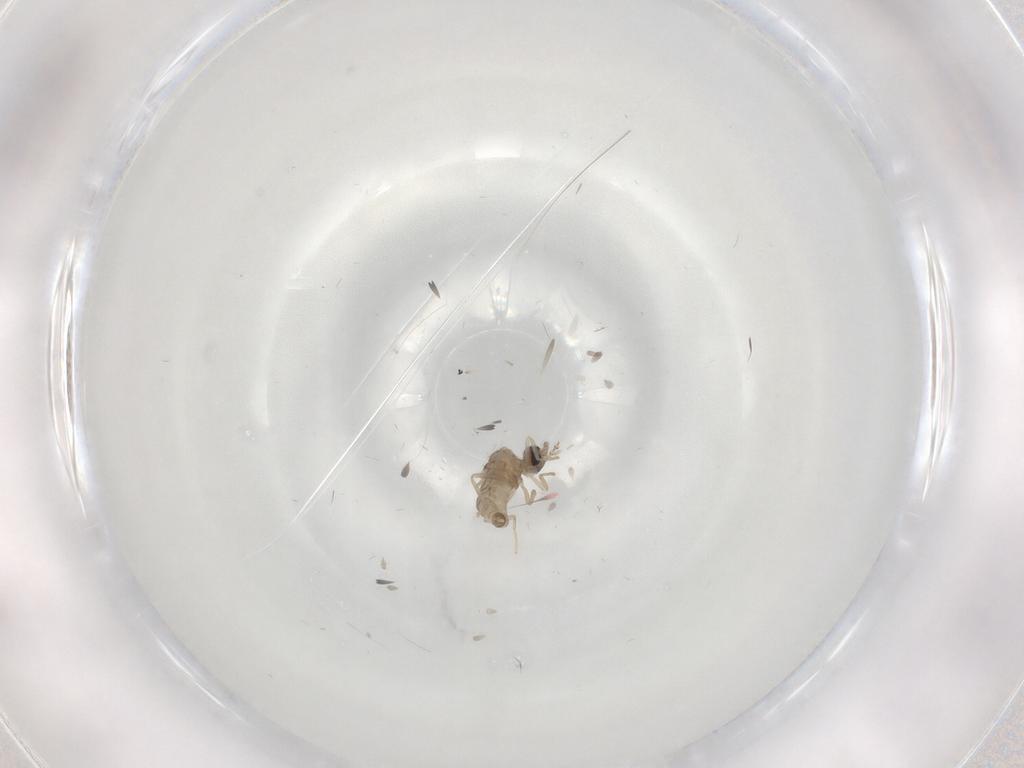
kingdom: Animalia
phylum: Arthropoda
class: Insecta
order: Diptera
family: Cecidomyiidae
